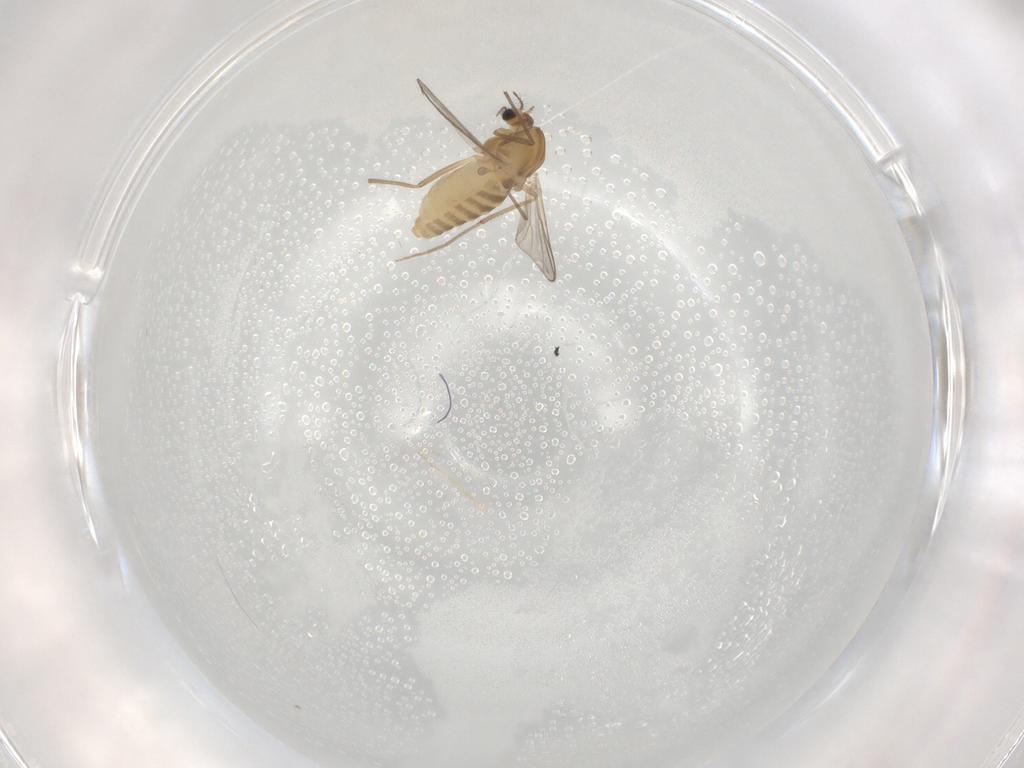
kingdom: Animalia
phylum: Arthropoda
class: Insecta
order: Diptera
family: Chironomidae
